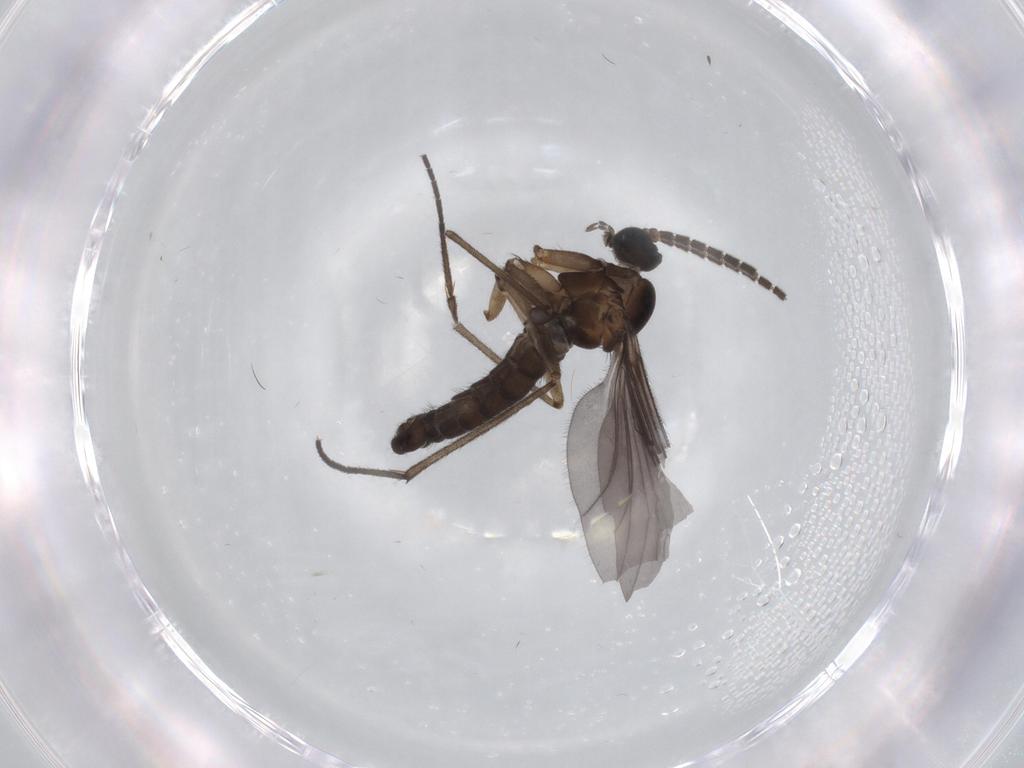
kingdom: Animalia
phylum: Arthropoda
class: Insecta
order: Diptera
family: Sciaridae
